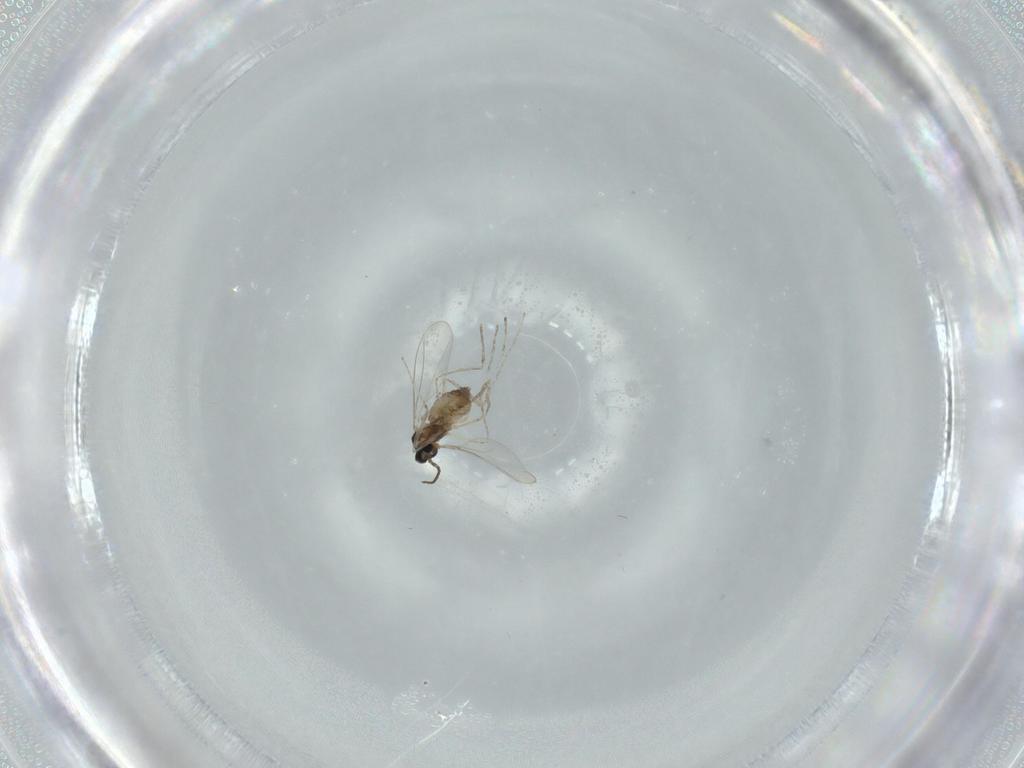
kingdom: Animalia
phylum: Arthropoda
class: Insecta
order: Diptera
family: Cecidomyiidae
